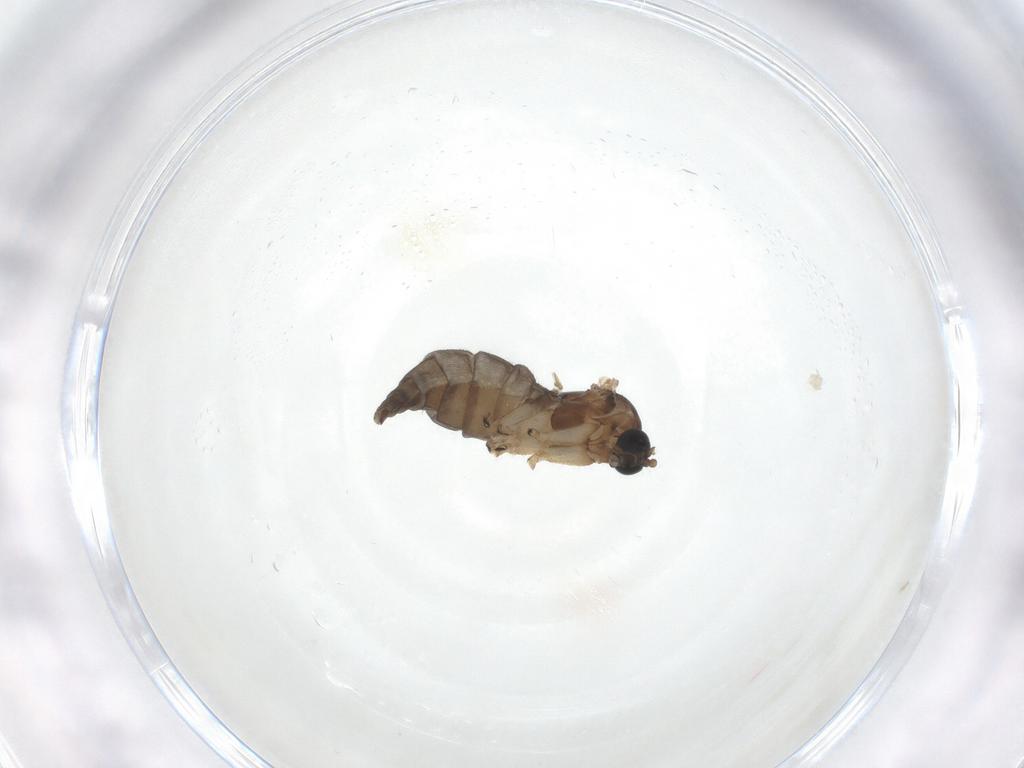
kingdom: Animalia
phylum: Arthropoda
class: Insecta
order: Diptera
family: Sciaridae
